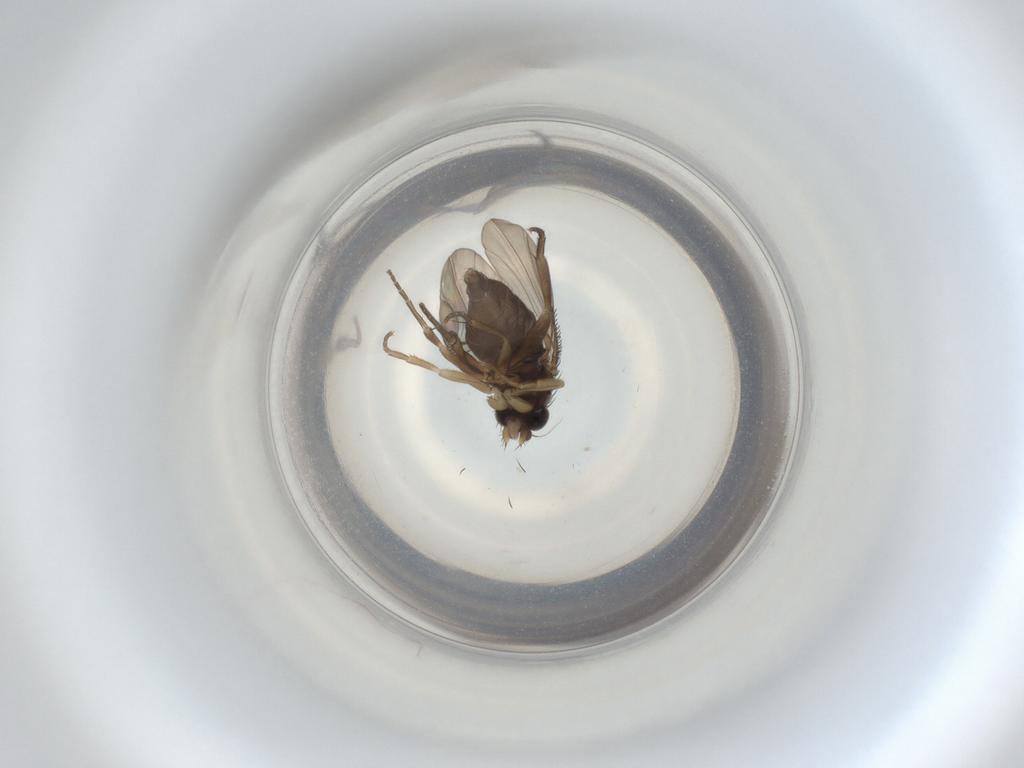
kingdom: Animalia
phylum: Arthropoda
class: Insecta
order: Diptera
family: Phoridae
